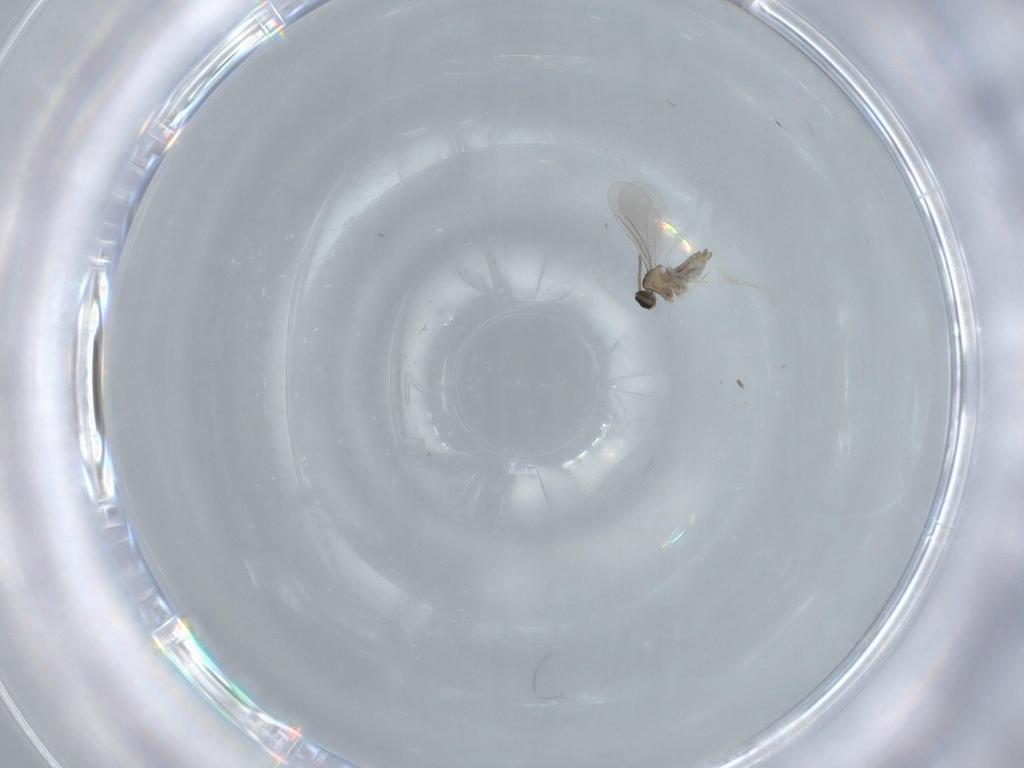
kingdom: Animalia
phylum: Arthropoda
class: Insecta
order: Diptera
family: Cecidomyiidae
